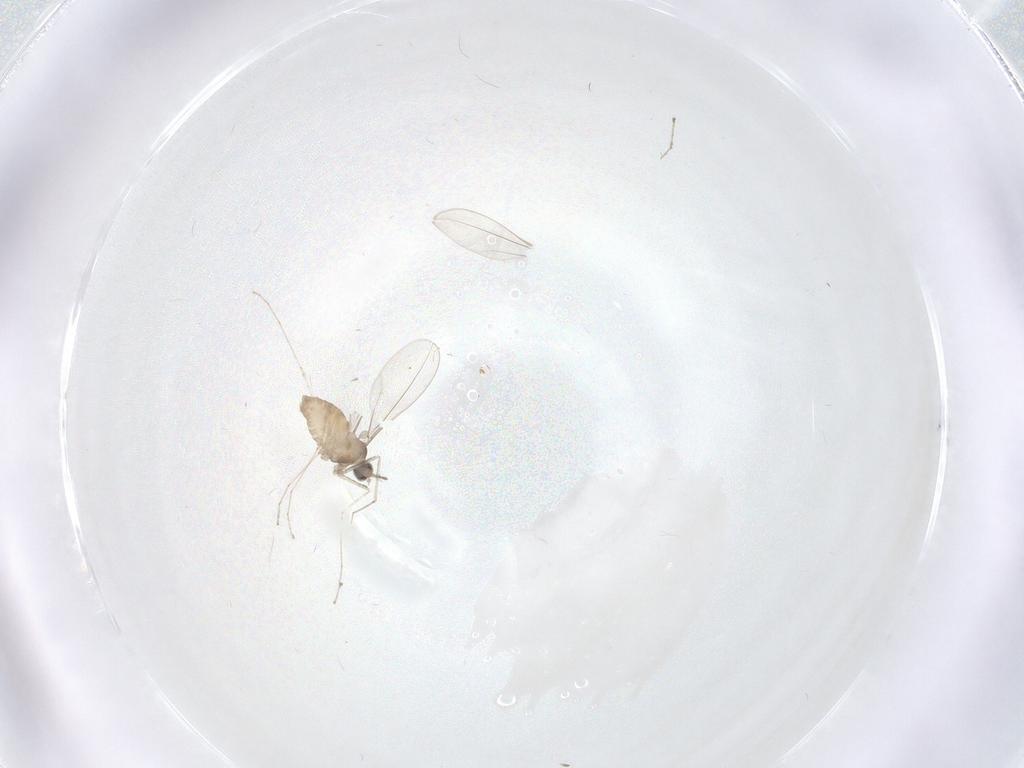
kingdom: Animalia
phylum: Arthropoda
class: Insecta
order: Diptera
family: Cecidomyiidae
